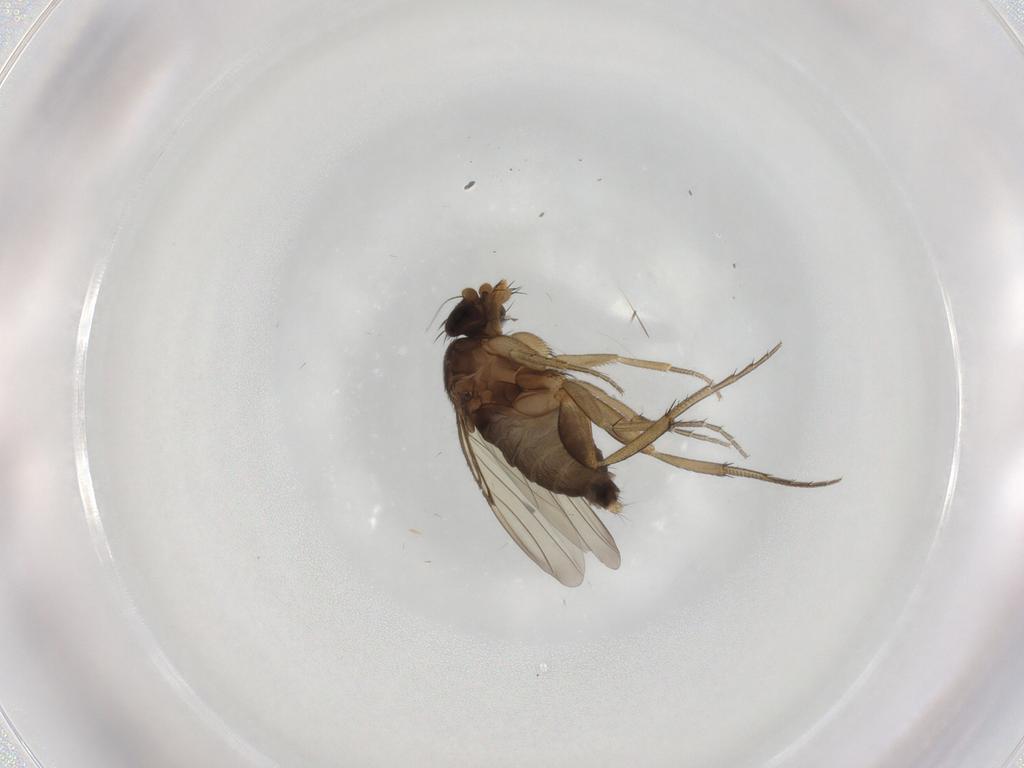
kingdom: Animalia
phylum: Arthropoda
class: Insecta
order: Diptera
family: Phoridae
